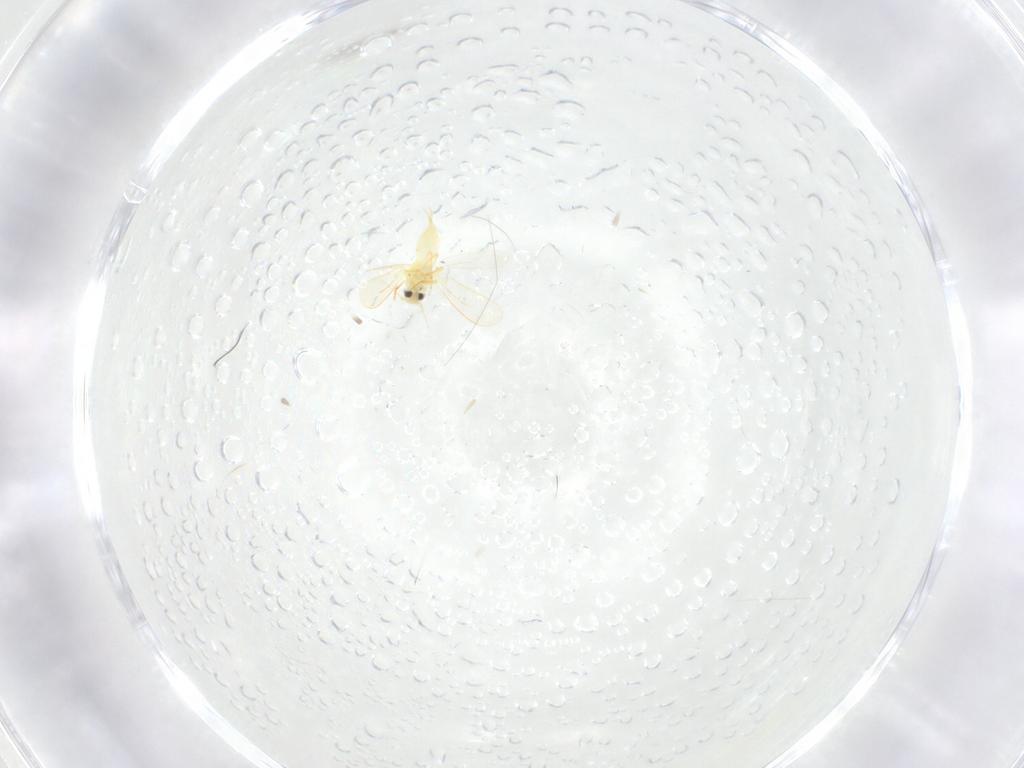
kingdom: Animalia
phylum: Arthropoda
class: Insecta
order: Hemiptera
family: Aleyrodidae
